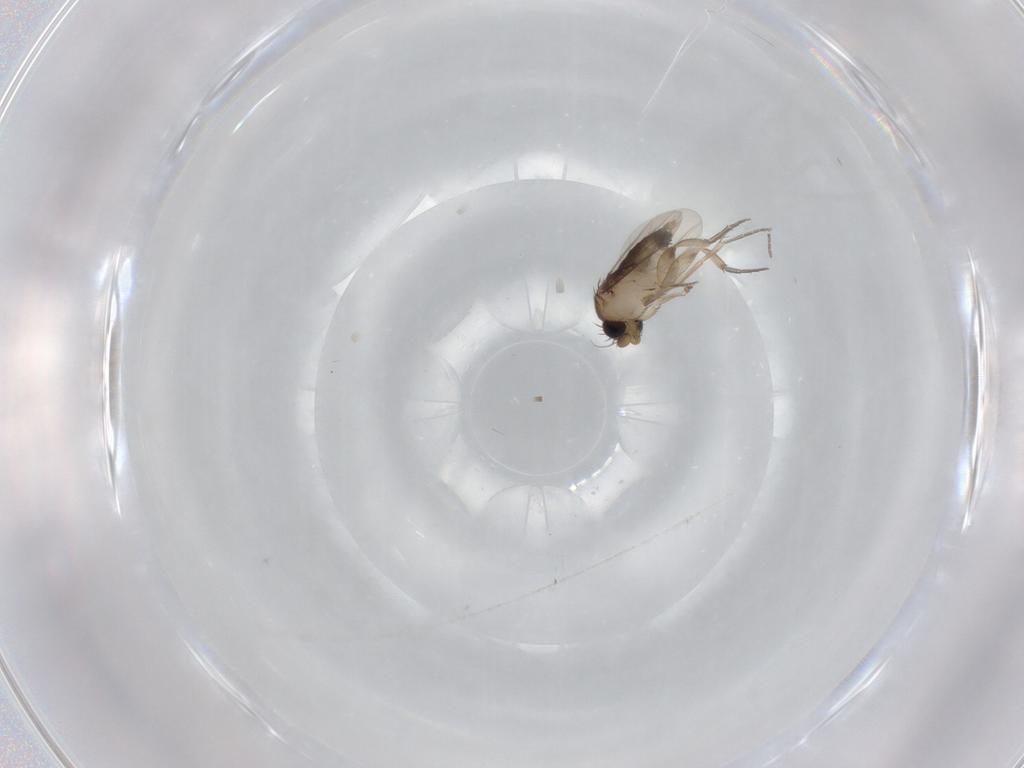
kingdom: Animalia
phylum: Arthropoda
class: Insecta
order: Diptera
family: Phoridae
